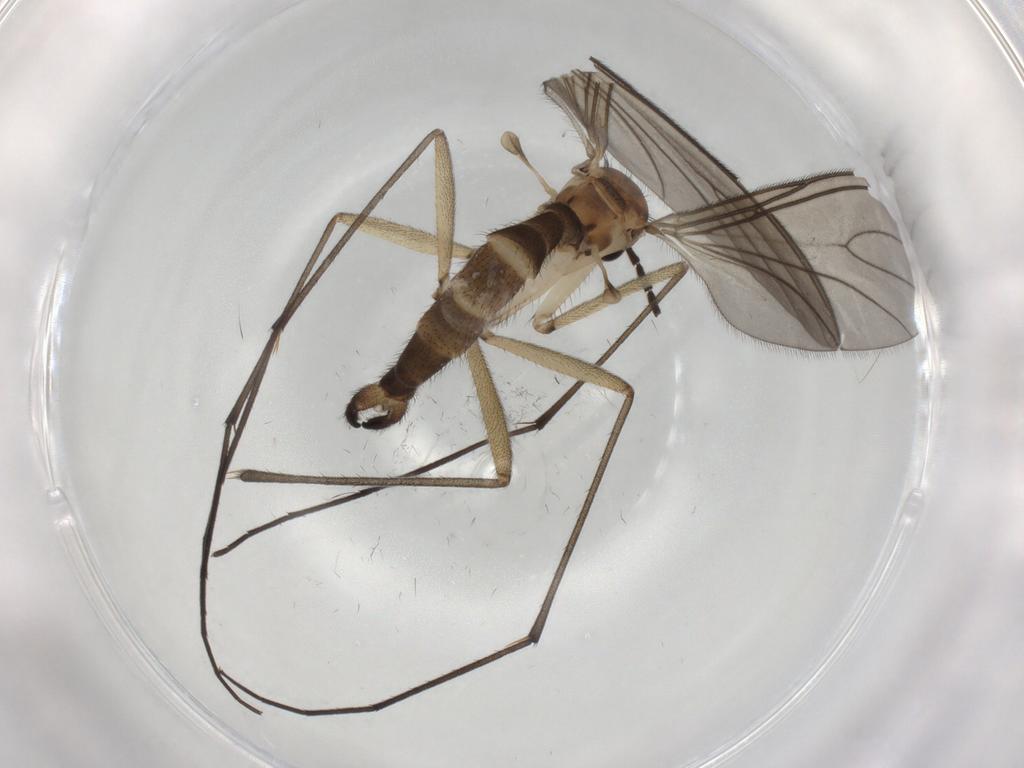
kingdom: Animalia
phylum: Arthropoda
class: Insecta
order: Diptera
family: Sciaridae
